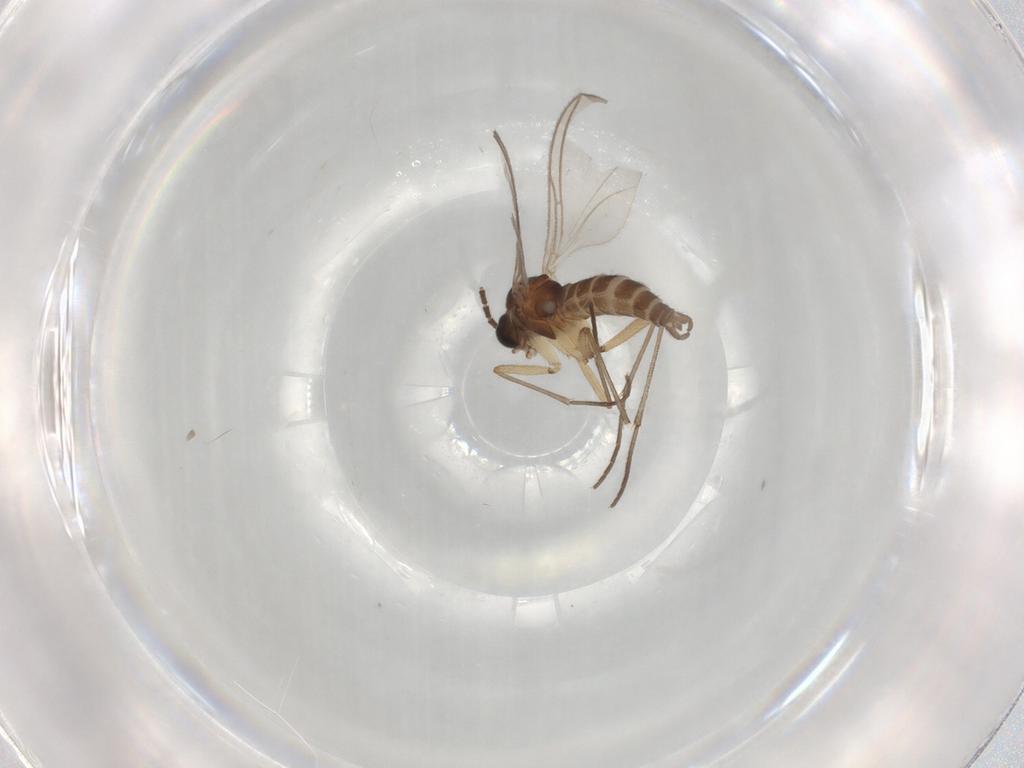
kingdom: Animalia
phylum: Arthropoda
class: Insecta
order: Diptera
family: Sciaridae
